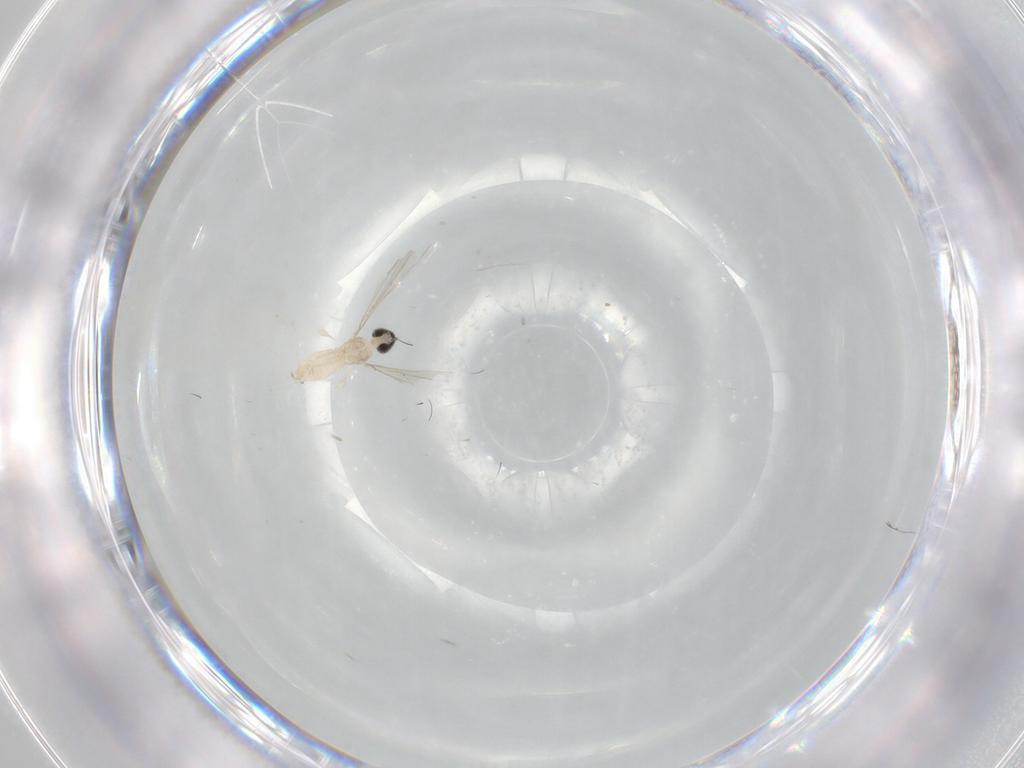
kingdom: Animalia
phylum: Arthropoda
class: Insecta
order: Diptera
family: Cecidomyiidae
